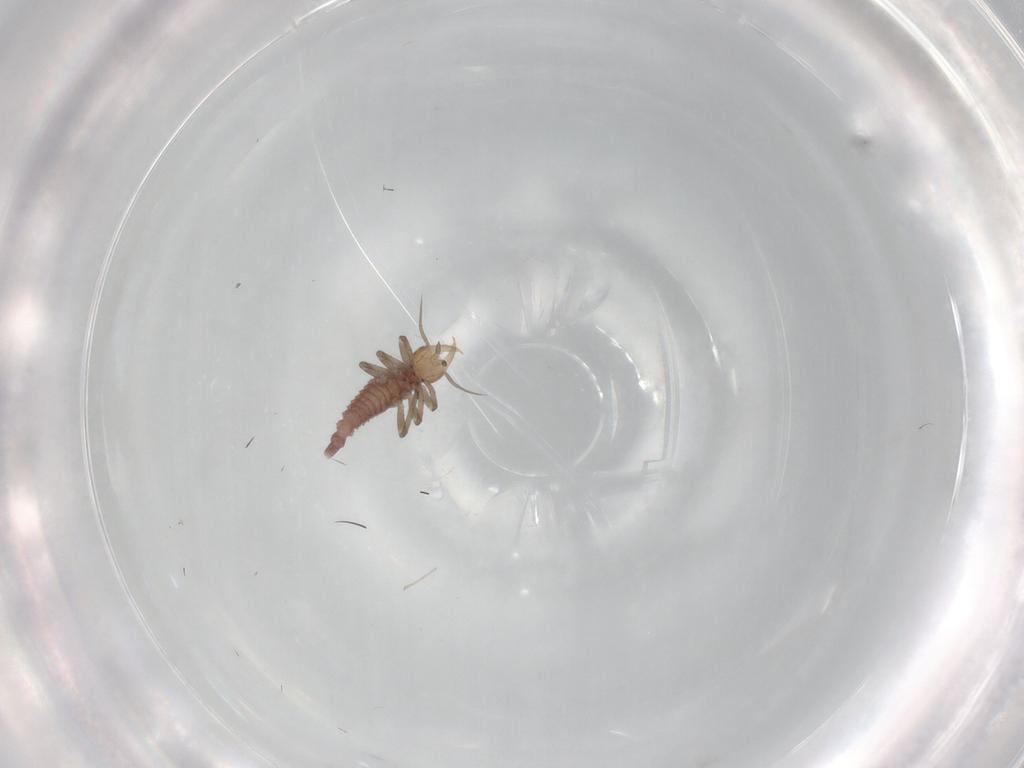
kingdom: Animalia
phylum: Arthropoda
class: Insecta
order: Neuroptera
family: Hemerobiidae
